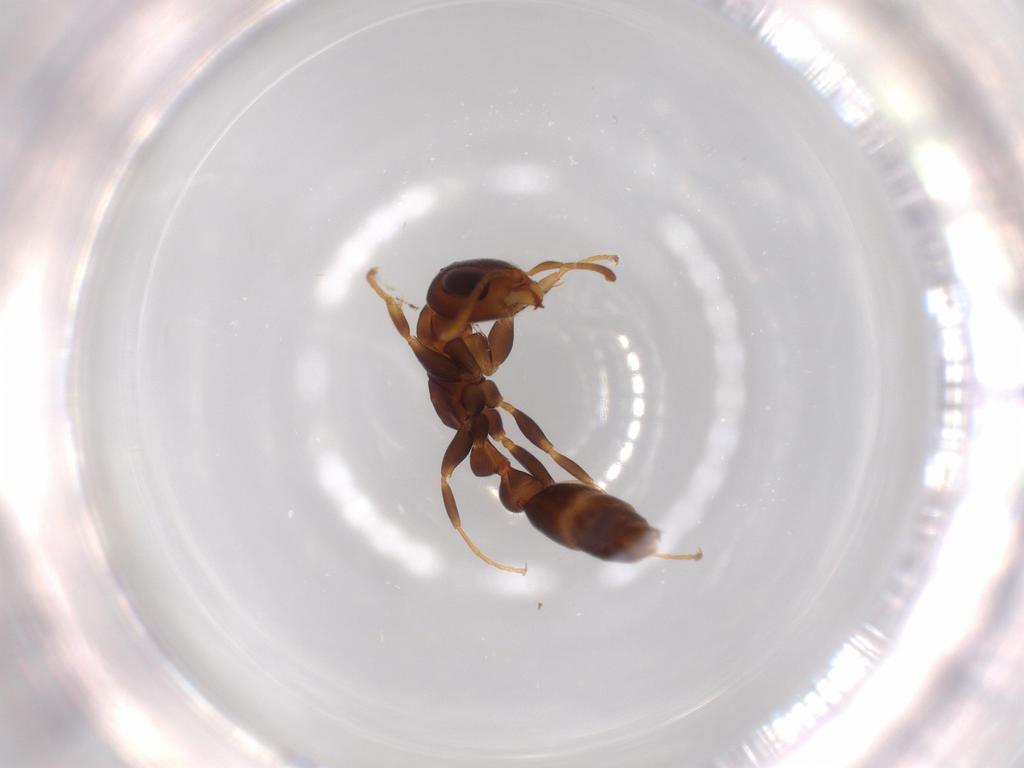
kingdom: Animalia
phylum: Arthropoda
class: Insecta
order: Hymenoptera
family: Formicidae
